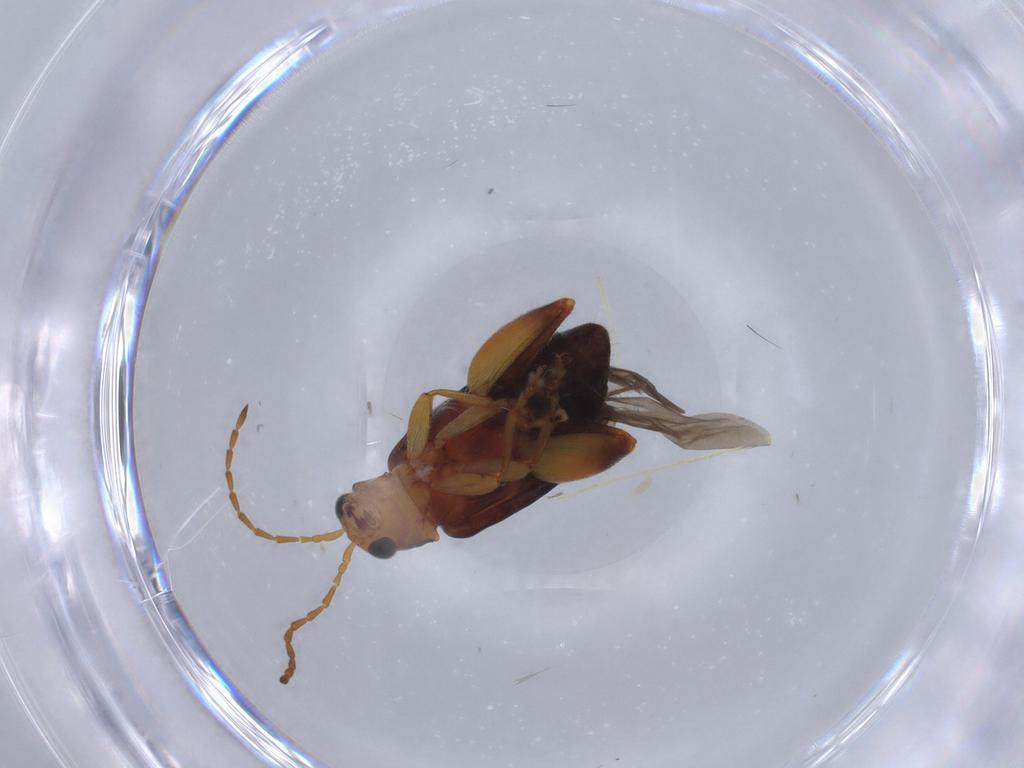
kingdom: Animalia
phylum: Arthropoda
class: Insecta
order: Coleoptera
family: Chrysomelidae
